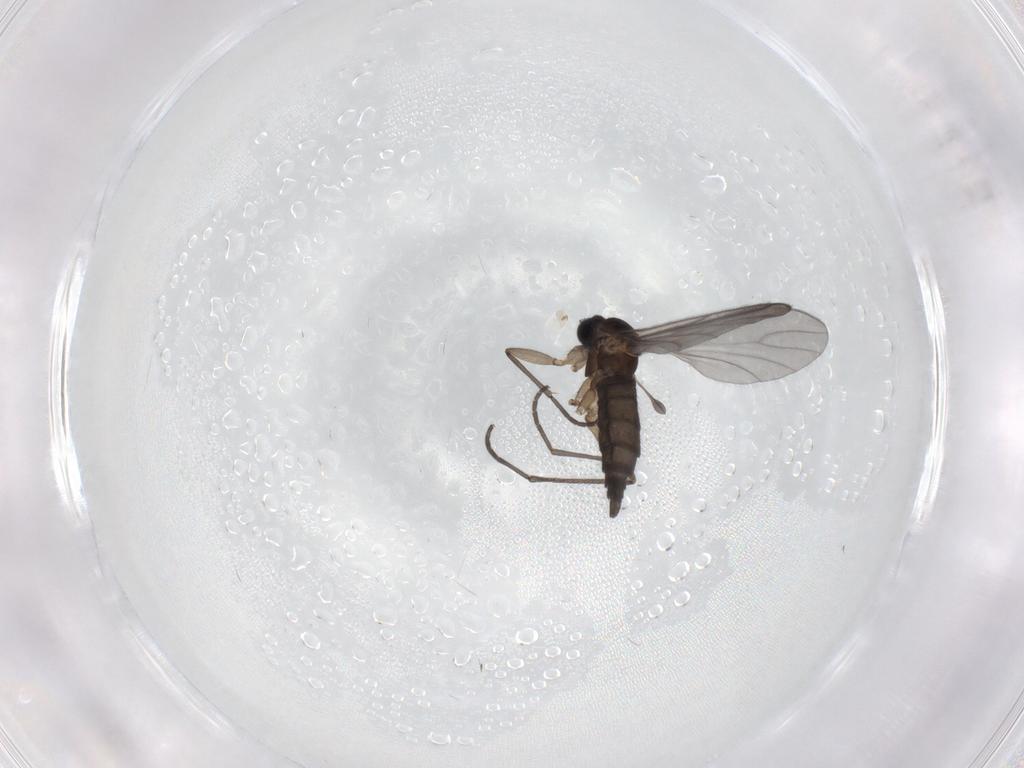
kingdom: Animalia
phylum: Arthropoda
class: Insecta
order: Diptera
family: Sciaridae
